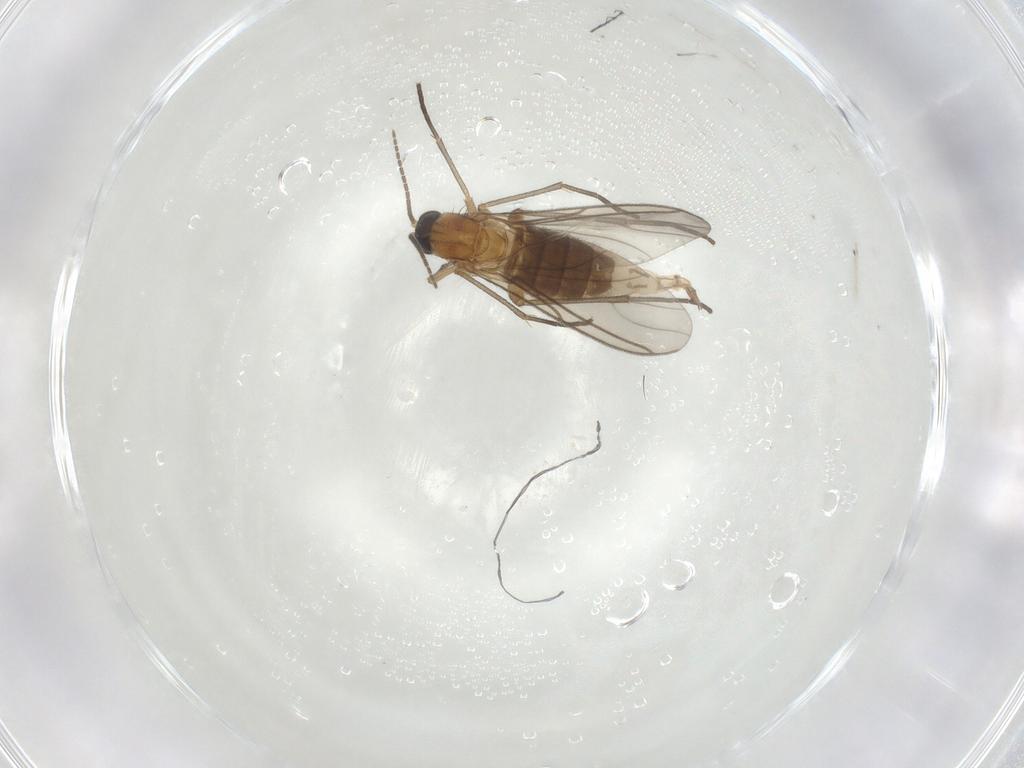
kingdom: Animalia
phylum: Arthropoda
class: Insecta
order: Diptera
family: Sciaridae
